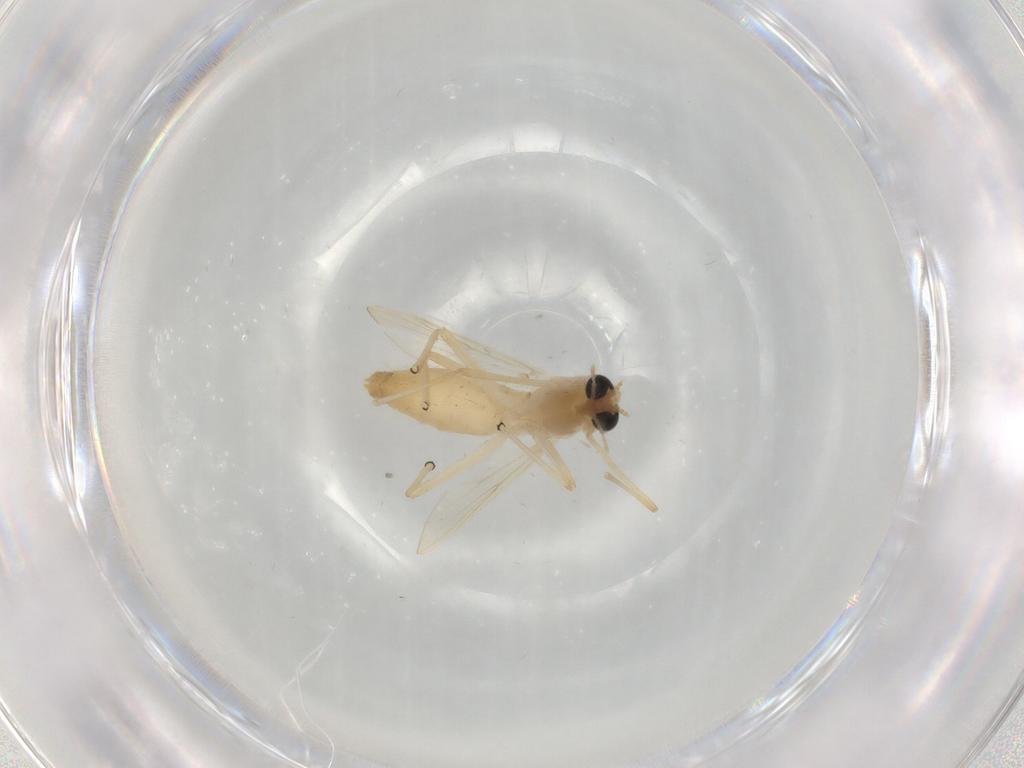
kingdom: Animalia
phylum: Arthropoda
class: Insecta
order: Diptera
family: Chironomidae
